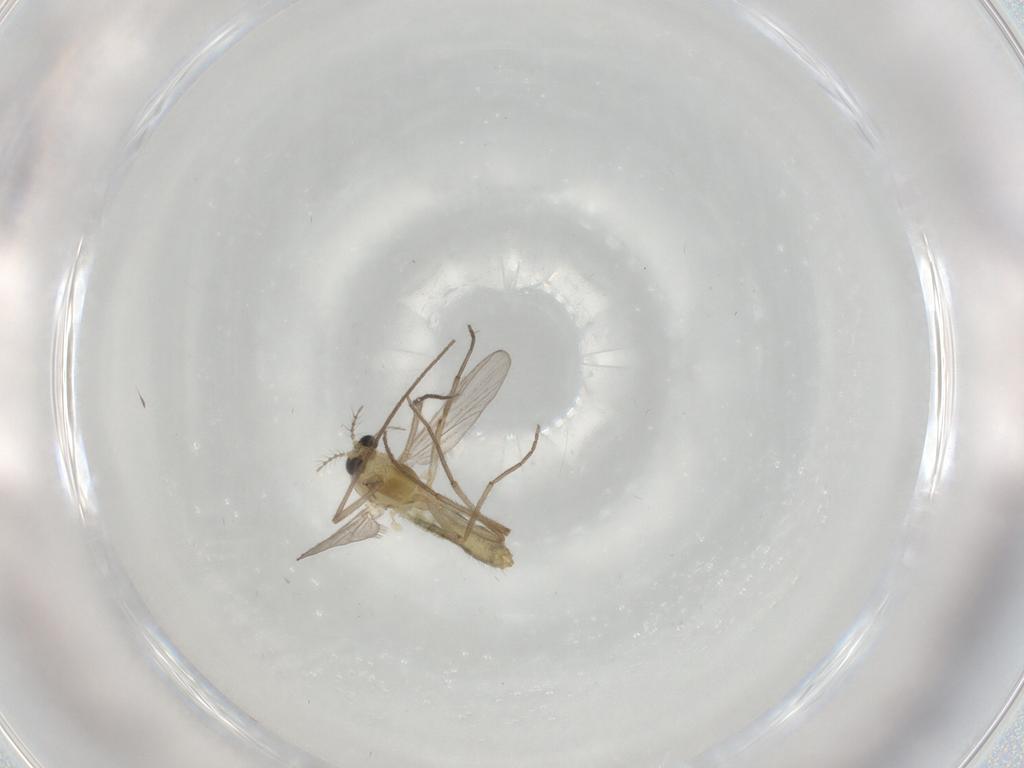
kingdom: Animalia
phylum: Arthropoda
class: Insecta
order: Diptera
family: Chironomidae
